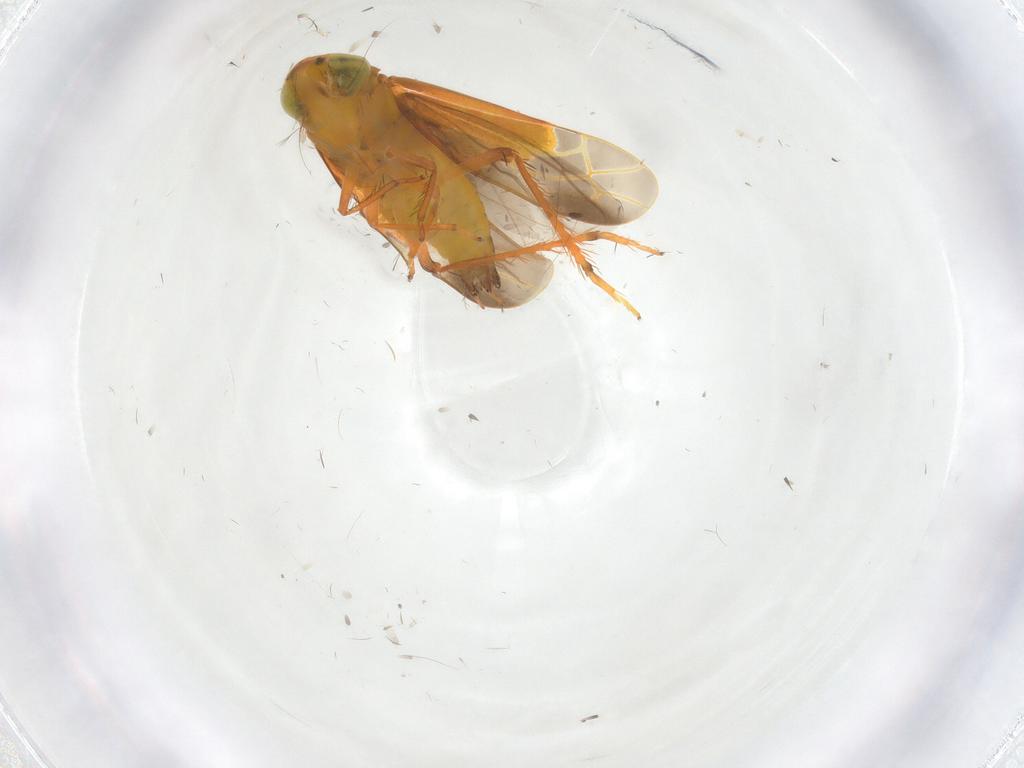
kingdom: Animalia
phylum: Arthropoda
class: Insecta
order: Hemiptera
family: Cicadellidae
